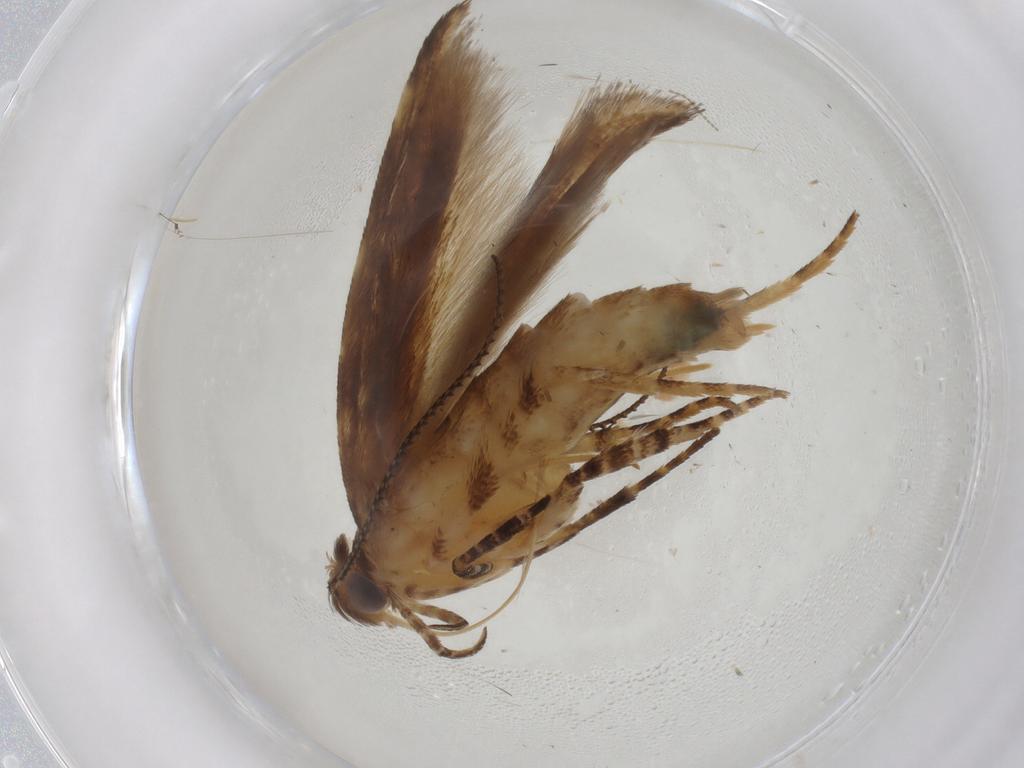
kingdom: Animalia
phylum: Arthropoda
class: Insecta
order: Lepidoptera
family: Gelechiidae
